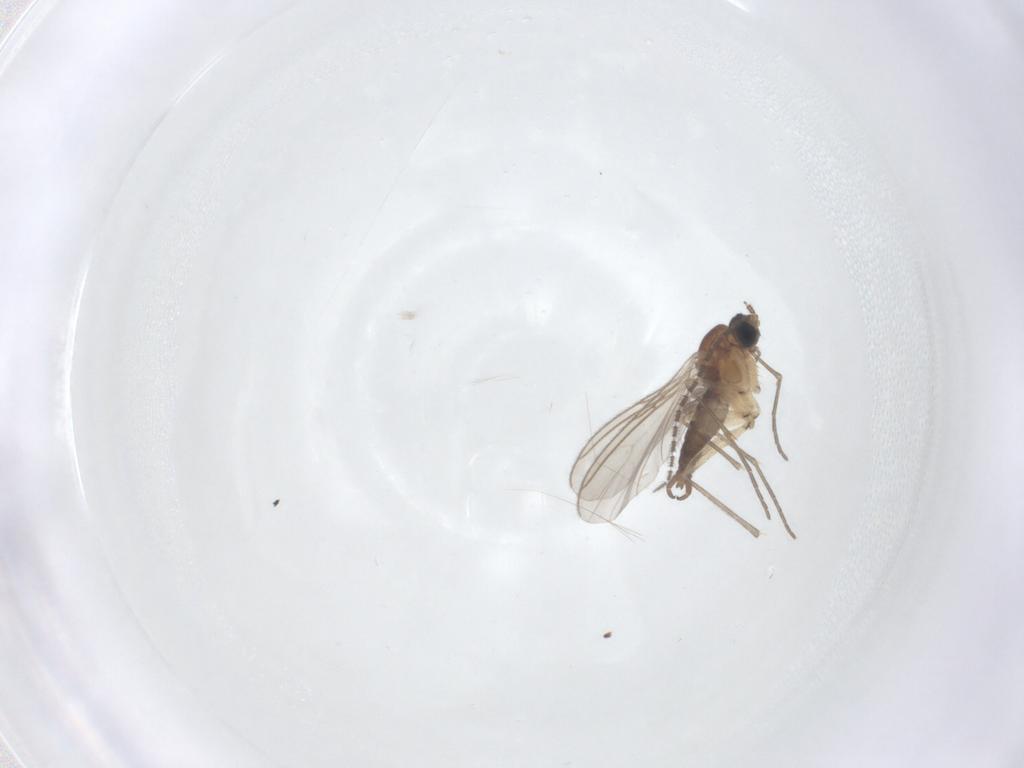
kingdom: Animalia
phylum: Arthropoda
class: Insecta
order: Diptera
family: Sciaridae
